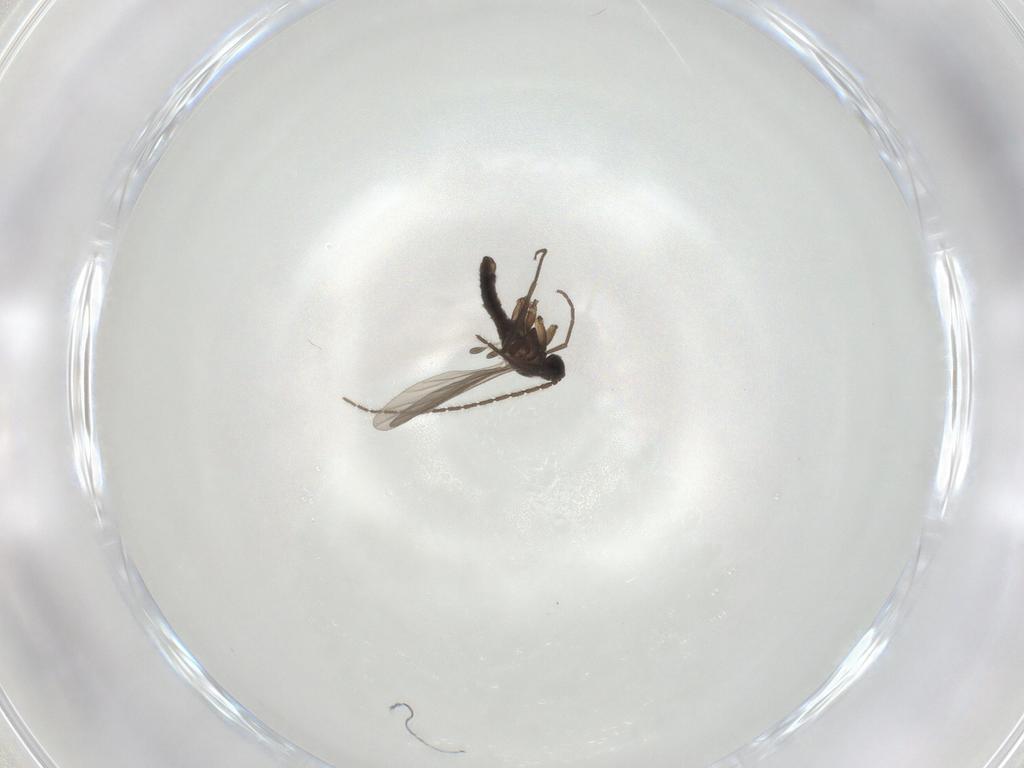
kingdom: Animalia
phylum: Arthropoda
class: Insecta
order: Diptera
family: Sciaridae
